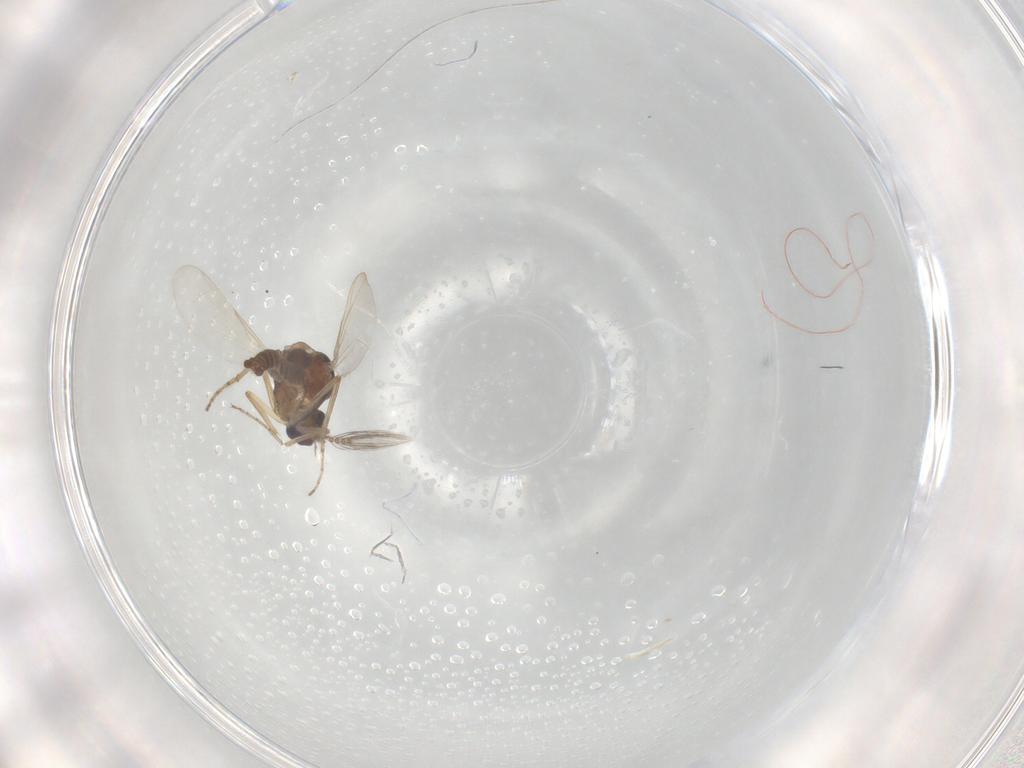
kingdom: Animalia
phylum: Arthropoda
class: Insecta
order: Diptera
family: Ceratopogonidae
